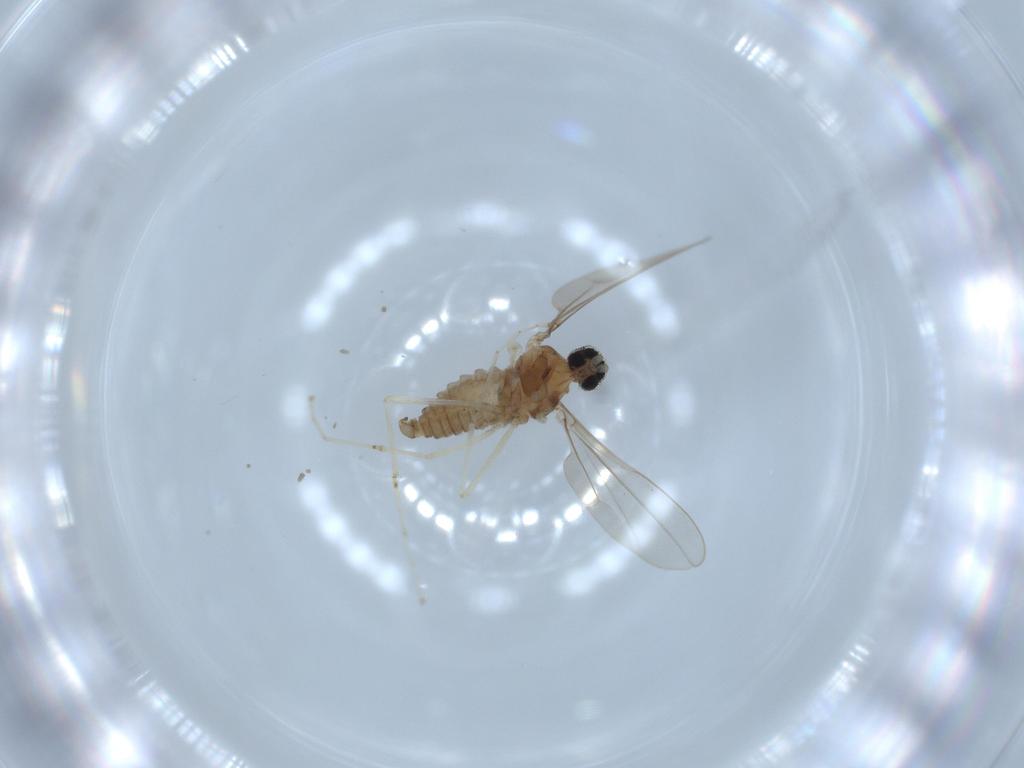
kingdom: Animalia
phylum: Arthropoda
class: Insecta
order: Diptera
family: Cecidomyiidae
